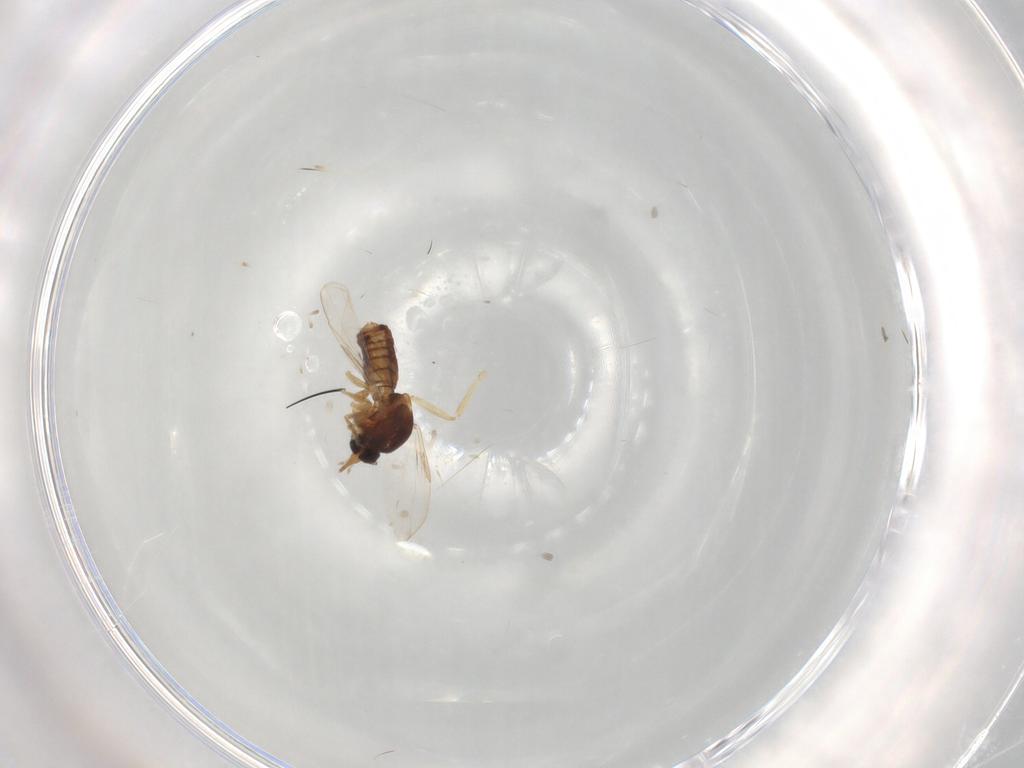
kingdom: Animalia
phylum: Arthropoda
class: Insecta
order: Diptera
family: Ceratopogonidae
